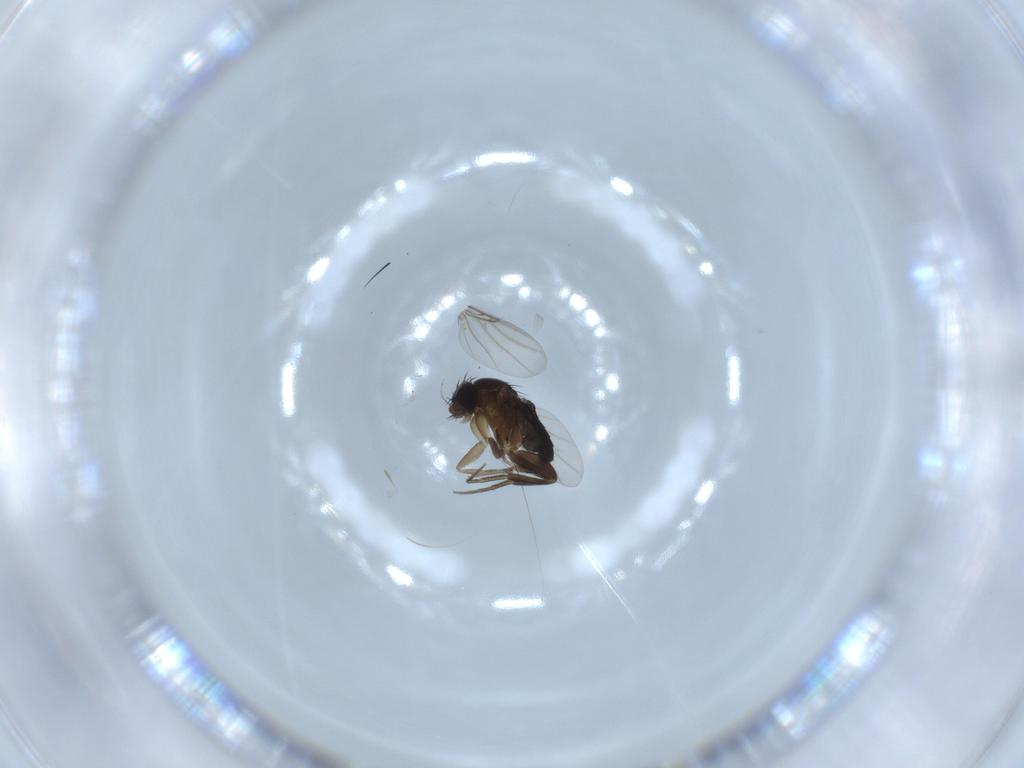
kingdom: Animalia
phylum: Arthropoda
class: Insecta
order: Diptera
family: Phoridae
